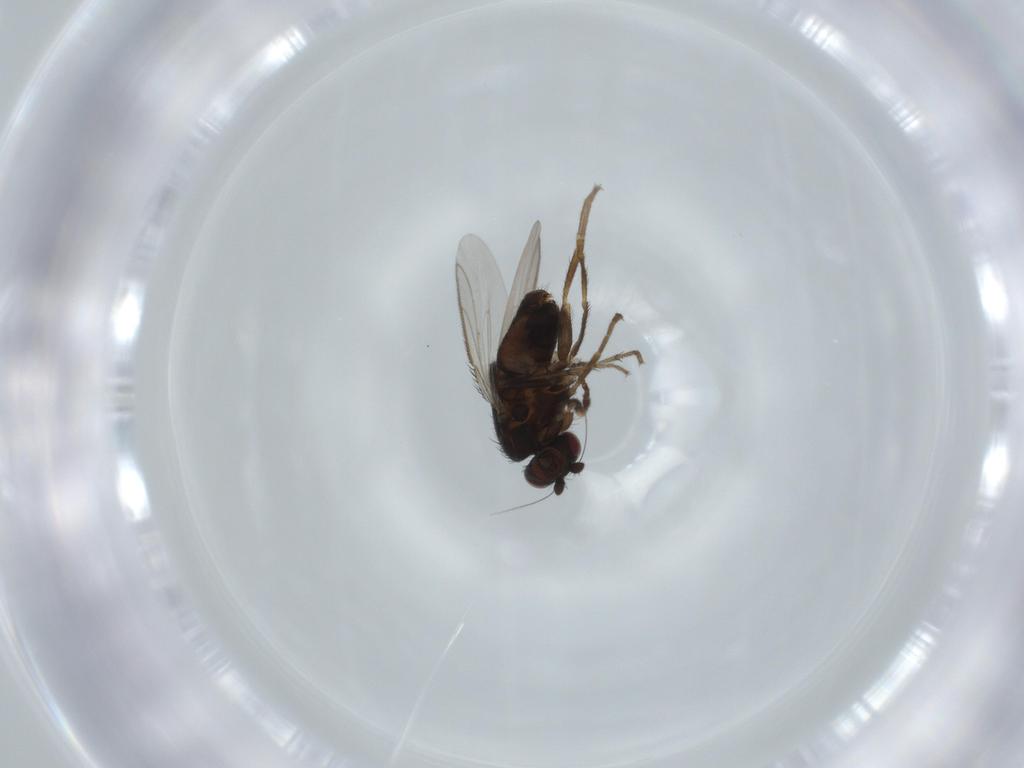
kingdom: Animalia
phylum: Arthropoda
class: Insecta
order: Diptera
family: Sphaeroceridae
